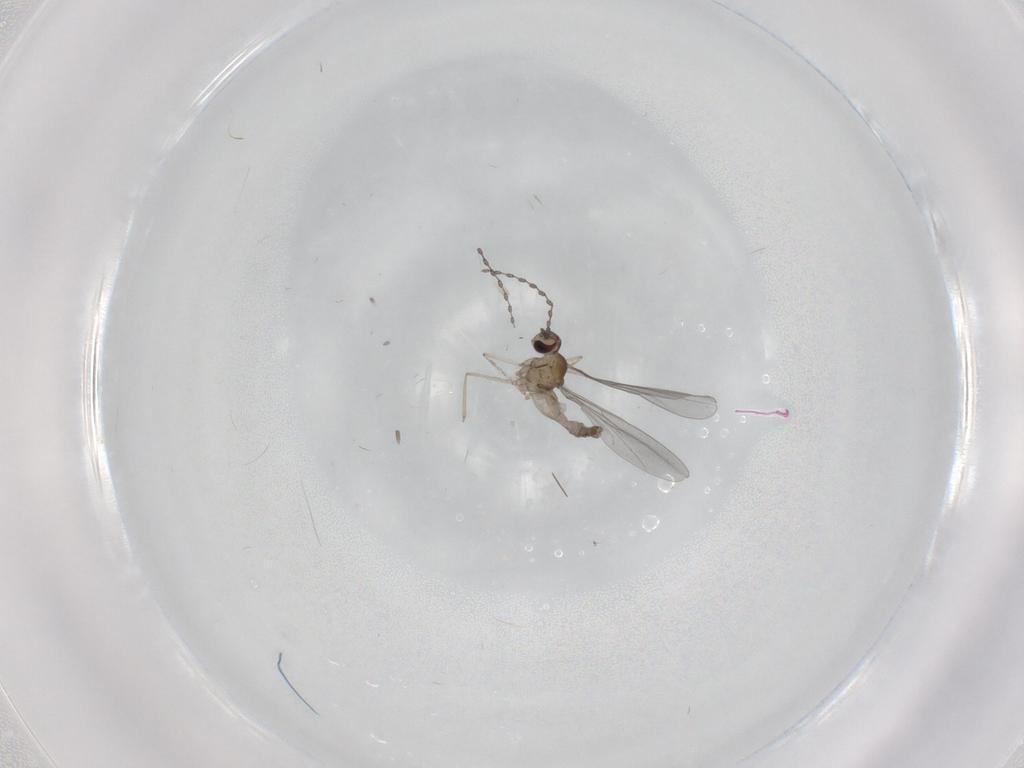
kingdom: Animalia
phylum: Arthropoda
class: Insecta
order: Diptera
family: Cecidomyiidae
